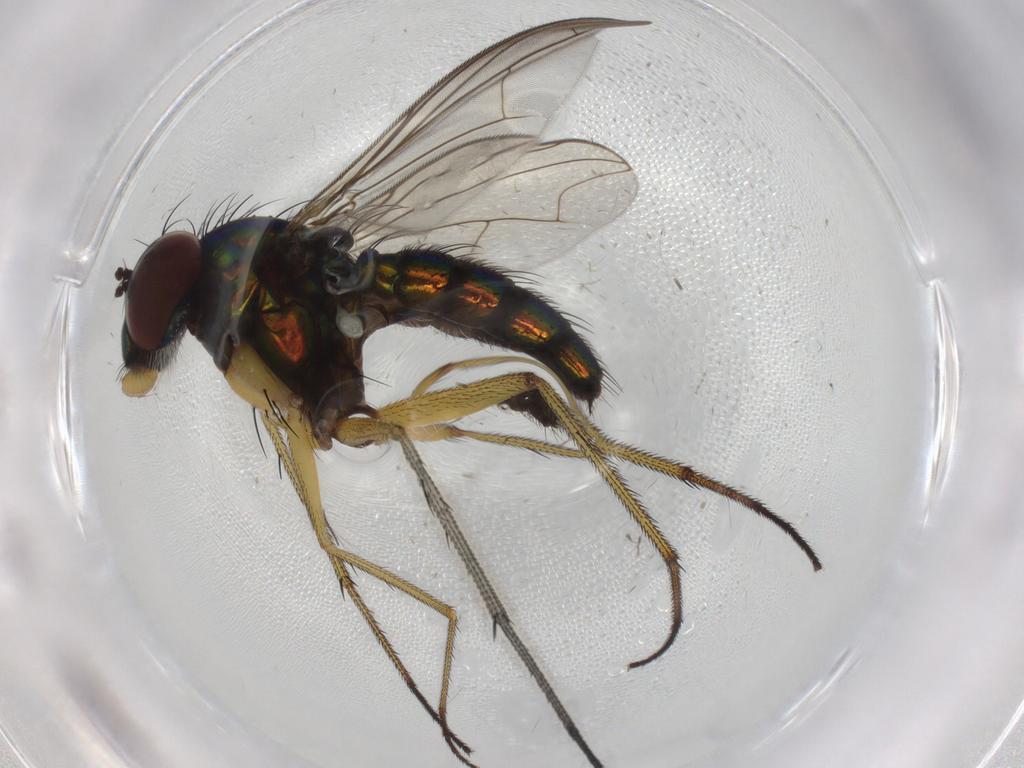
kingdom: Animalia
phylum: Arthropoda
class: Insecta
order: Diptera
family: Dolichopodidae
